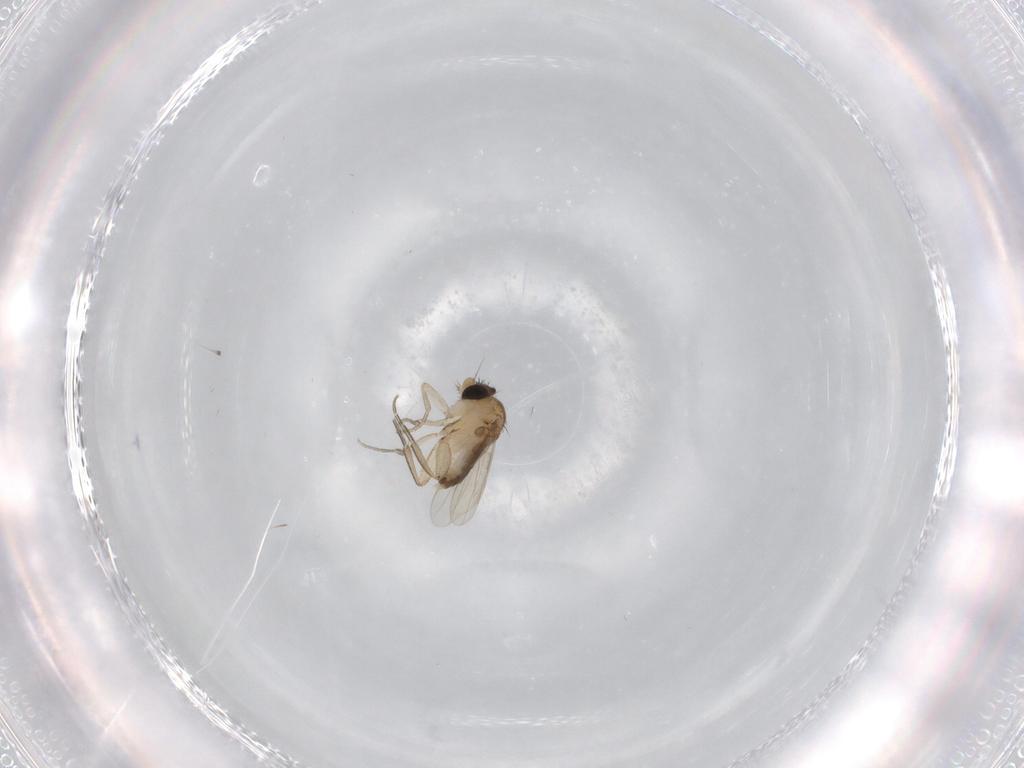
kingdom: Animalia
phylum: Arthropoda
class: Insecta
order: Diptera
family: Phoridae
